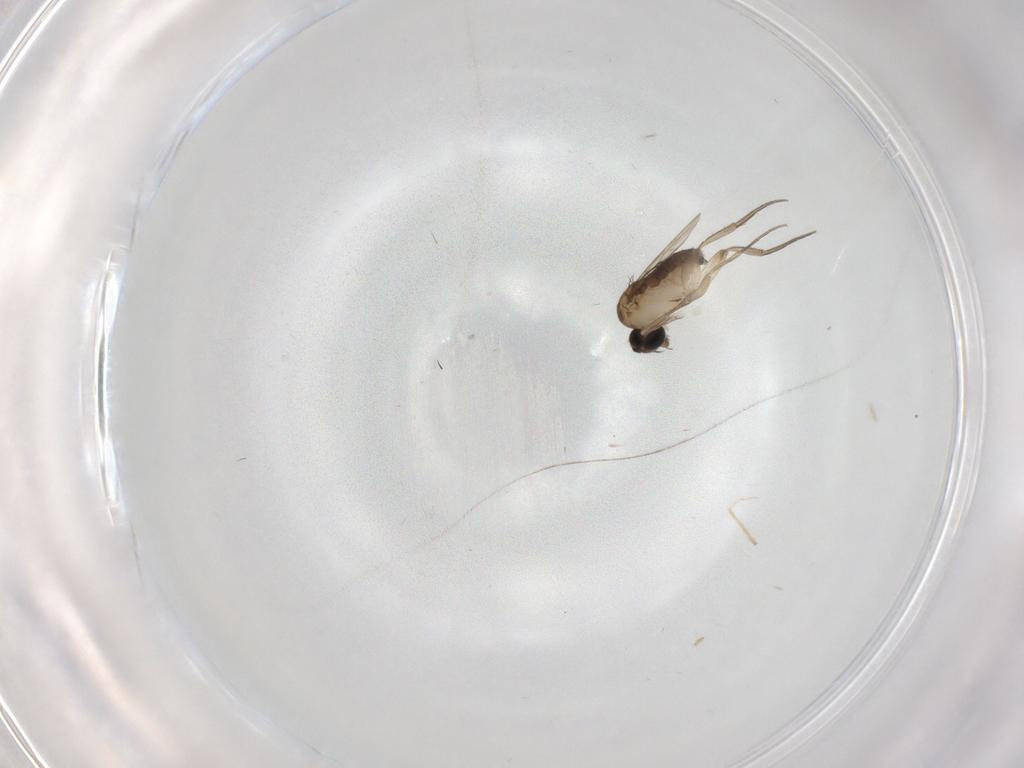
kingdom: Animalia
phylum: Arthropoda
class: Insecta
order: Diptera
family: Phoridae
